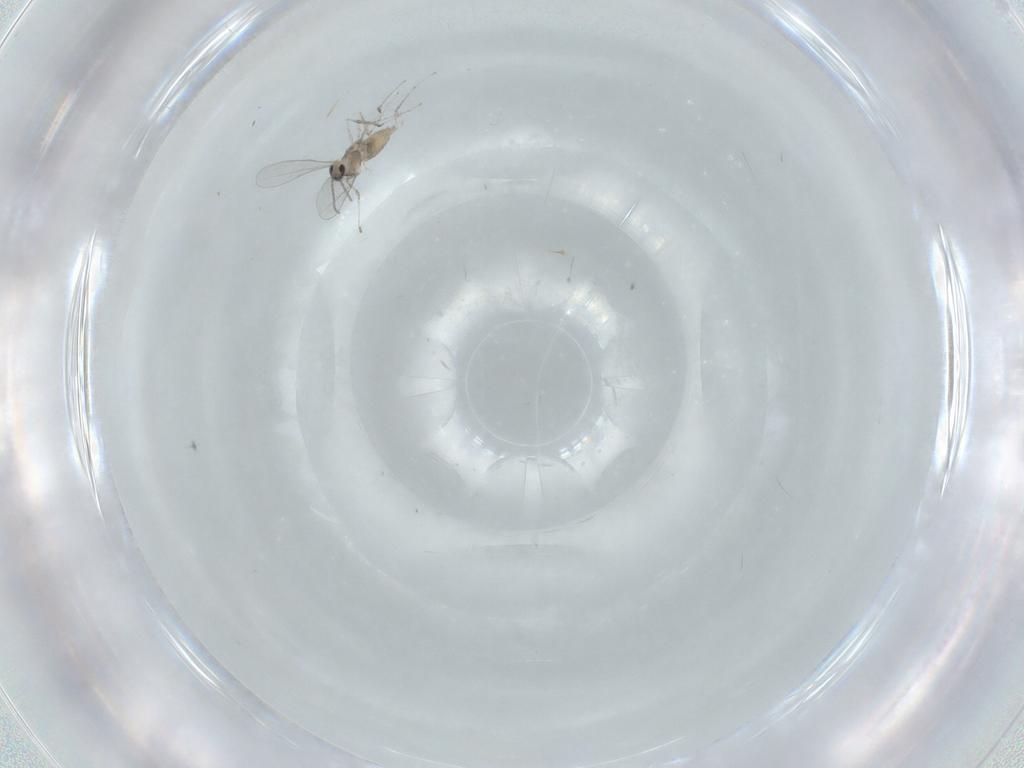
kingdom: Animalia
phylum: Arthropoda
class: Insecta
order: Diptera
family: Cecidomyiidae
